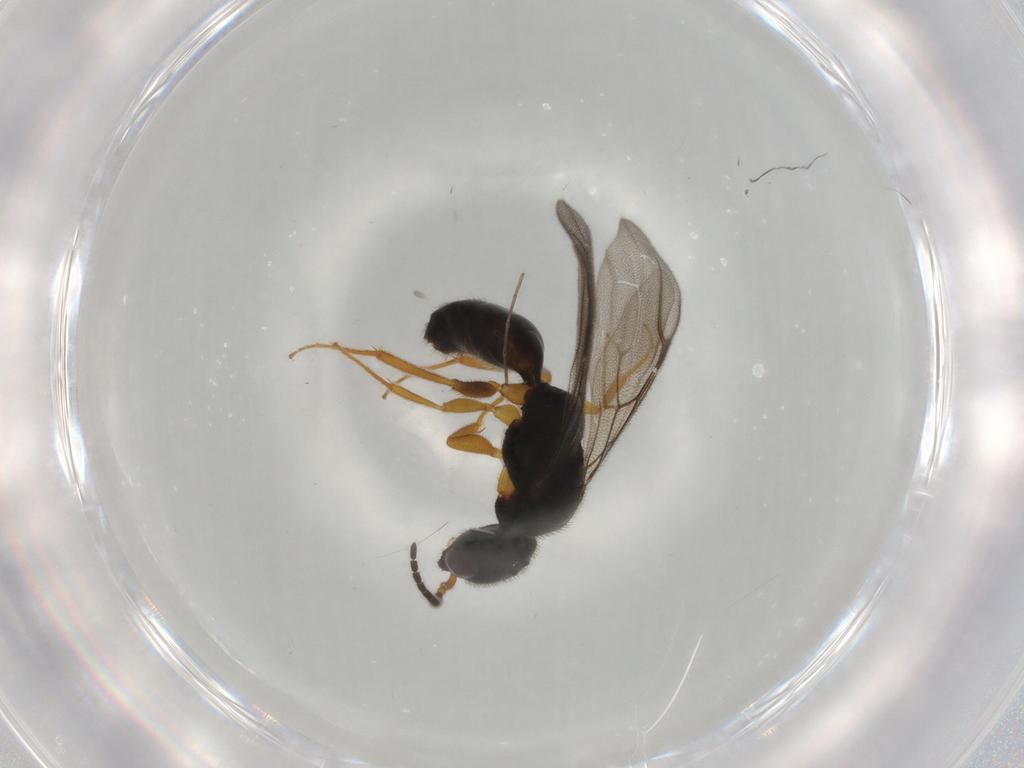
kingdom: Animalia
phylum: Arthropoda
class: Insecta
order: Hymenoptera
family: Bethylidae
